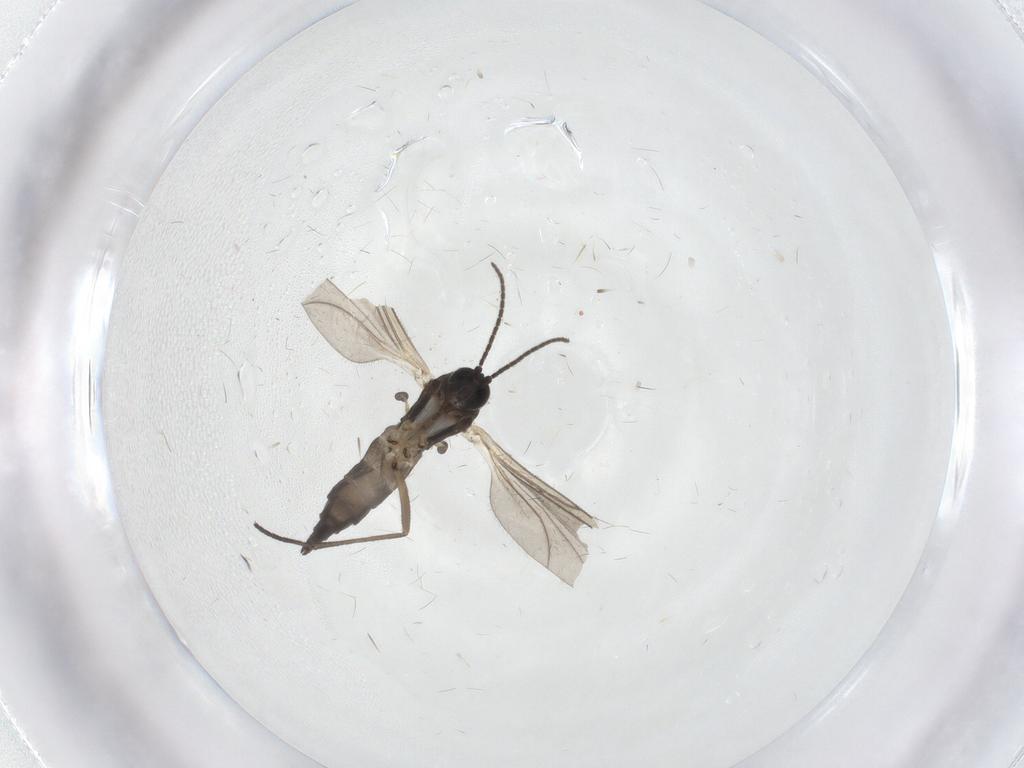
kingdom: Animalia
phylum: Arthropoda
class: Insecta
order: Diptera
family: Sciaridae
